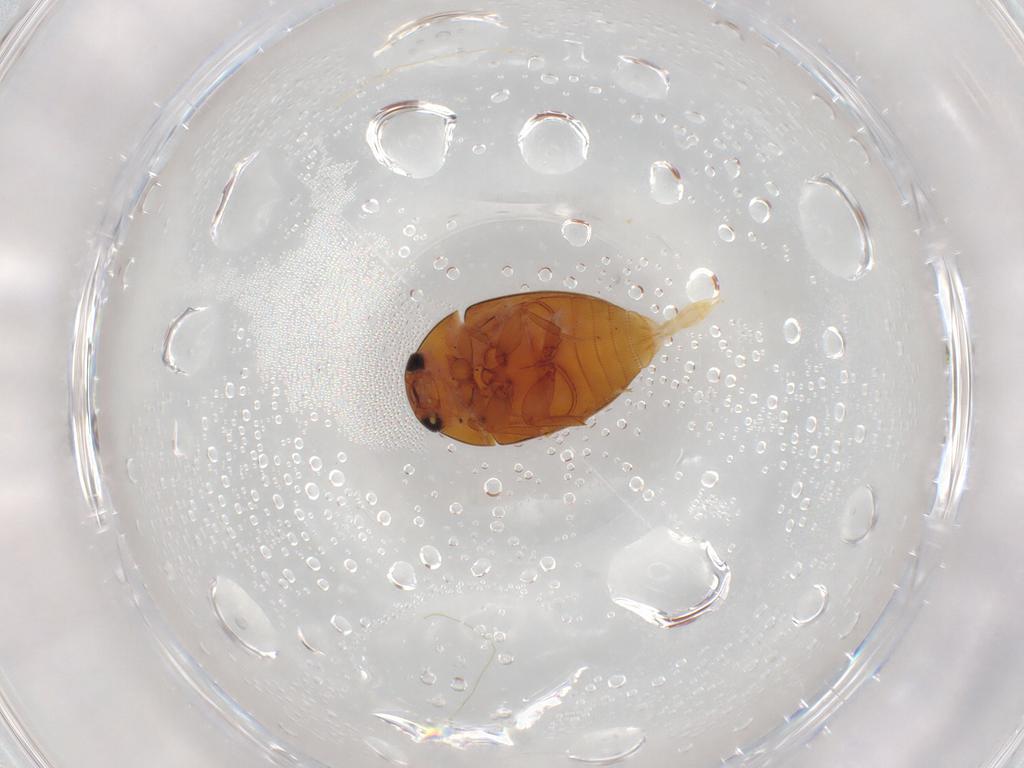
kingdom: Animalia
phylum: Arthropoda
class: Insecta
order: Coleoptera
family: Phalacridae
